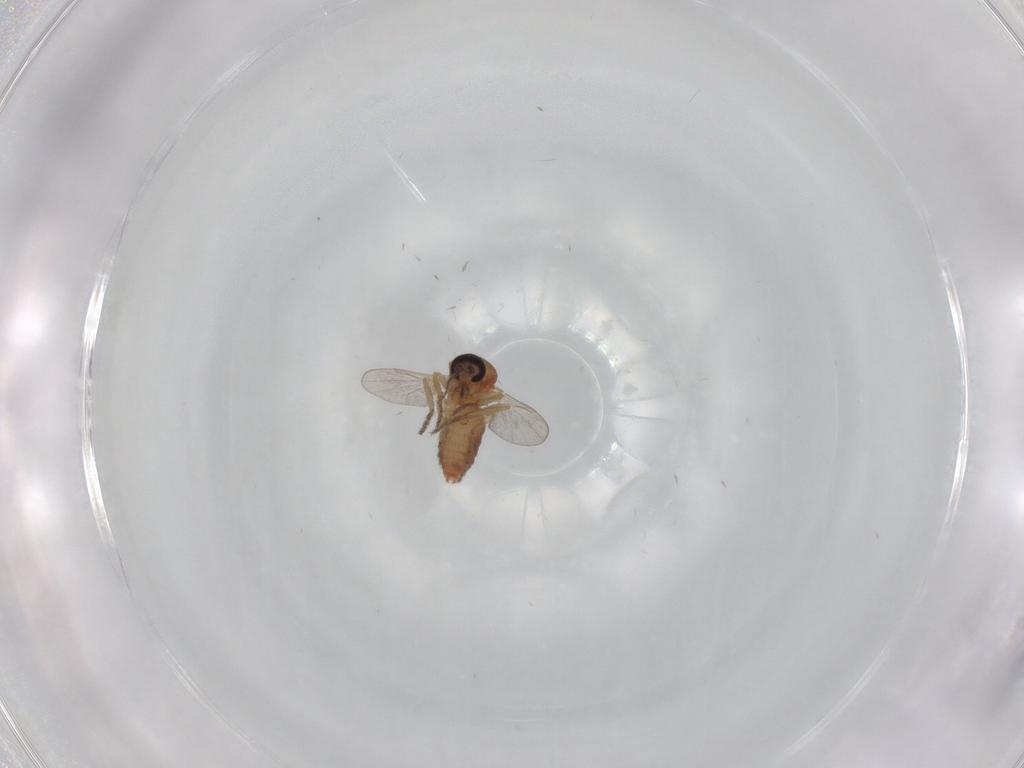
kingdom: Animalia
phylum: Arthropoda
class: Insecta
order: Diptera
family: Ceratopogonidae
